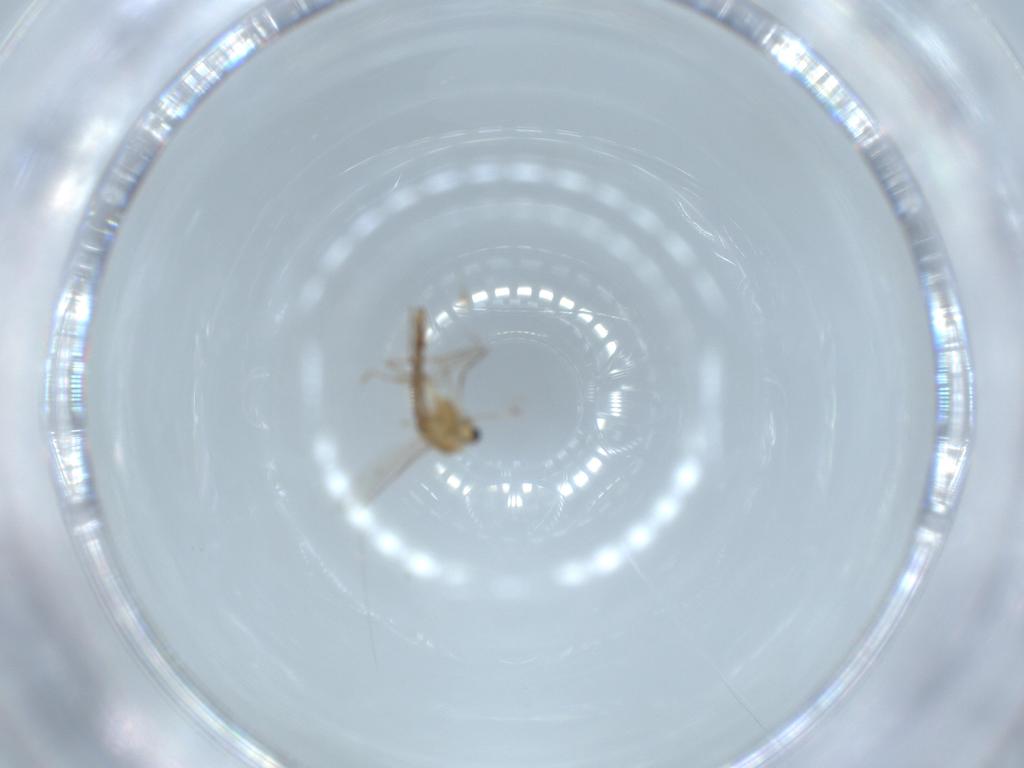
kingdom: Animalia
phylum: Arthropoda
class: Insecta
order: Diptera
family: Chironomidae
